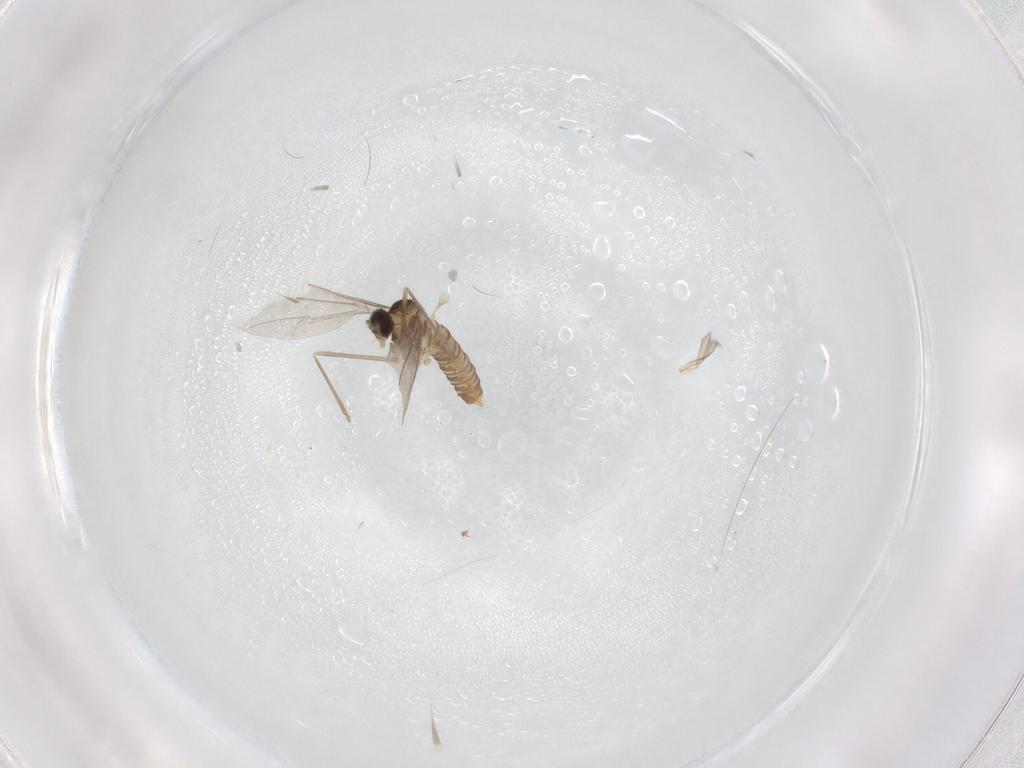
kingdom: Animalia
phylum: Arthropoda
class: Insecta
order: Diptera
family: Cecidomyiidae
